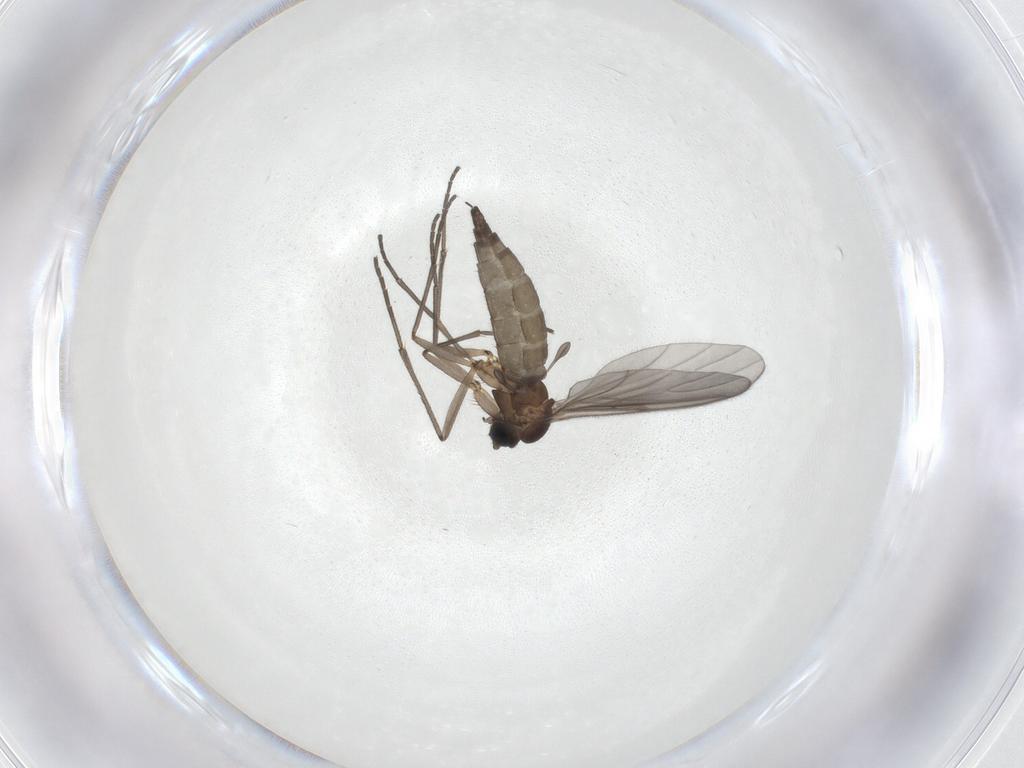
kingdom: Animalia
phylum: Arthropoda
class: Insecta
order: Diptera
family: Sciaridae
